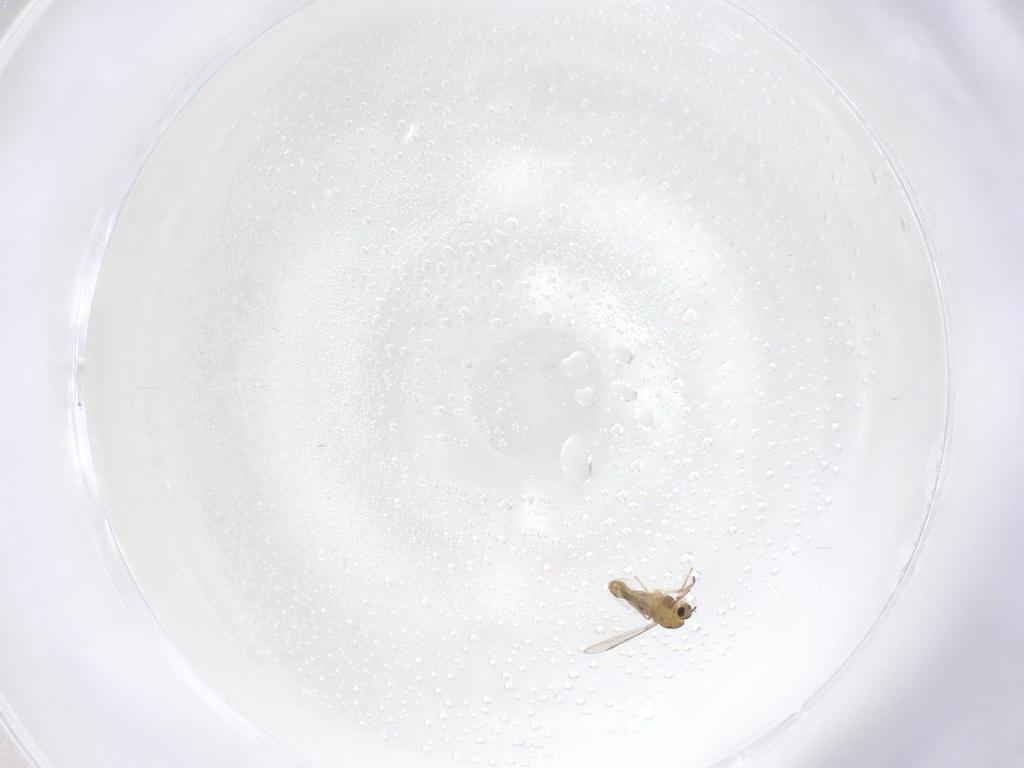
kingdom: Animalia
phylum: Arthropoda
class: Insecta
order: Diptera
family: Chironomidae
